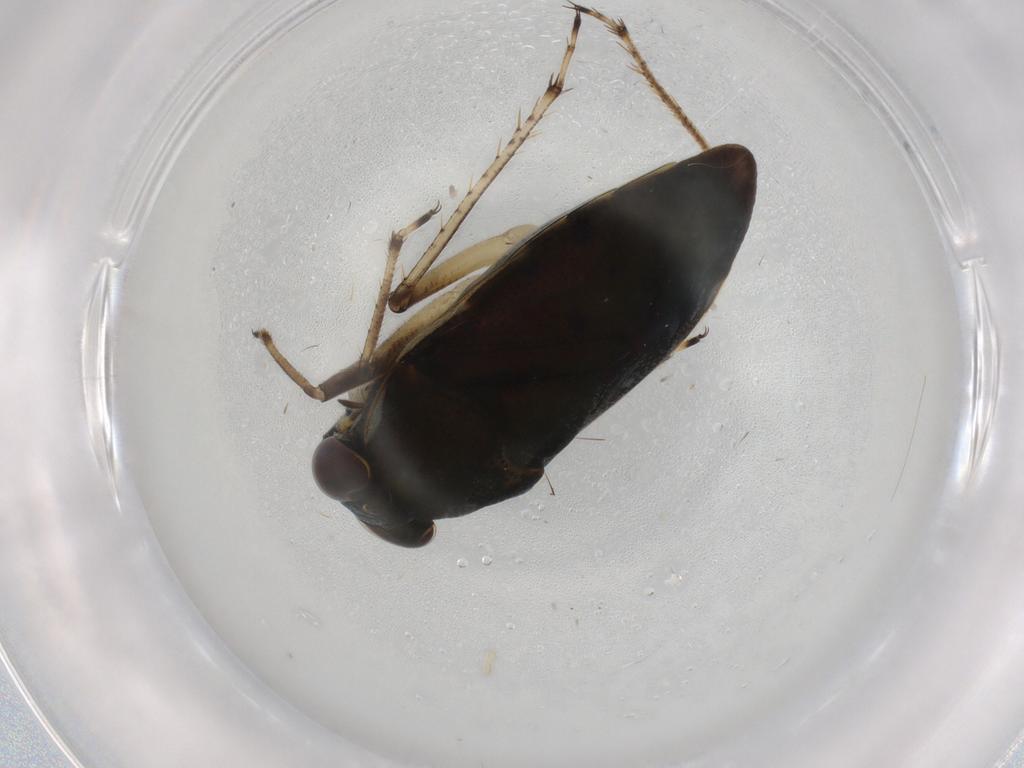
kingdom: Animalia
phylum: Arthropoda
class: Insecta
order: Hemiptera
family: Ochteridae
